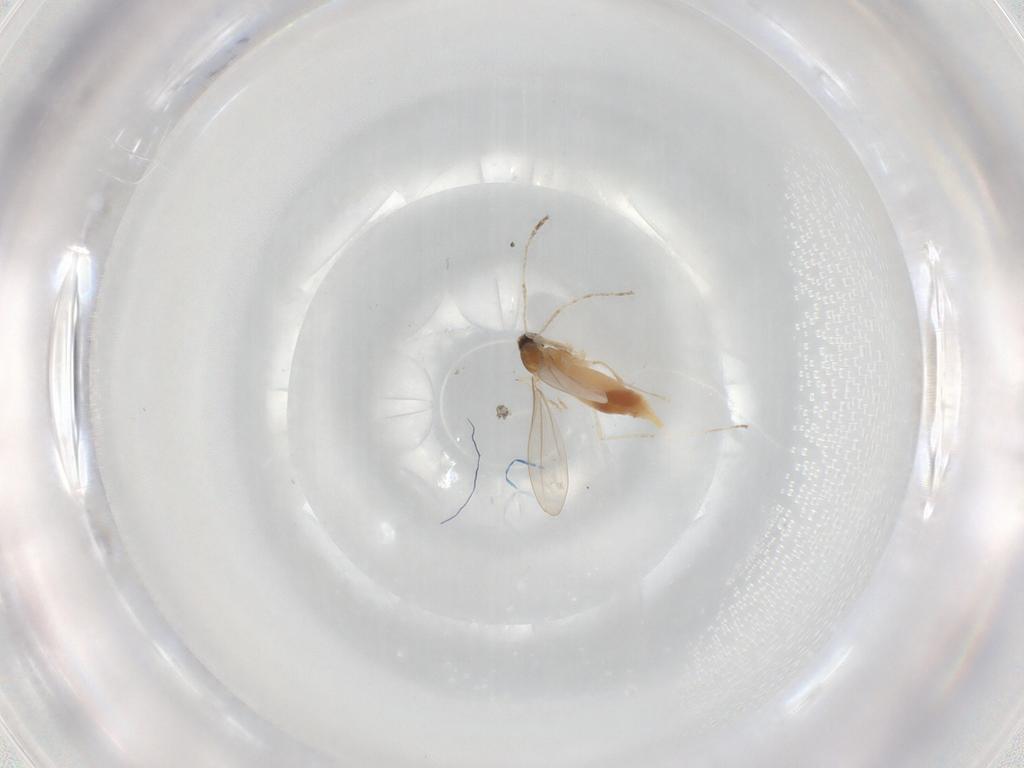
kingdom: Animalia
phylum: Arthropoda
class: Insecta
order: Diptera
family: Cecidomyiidae
